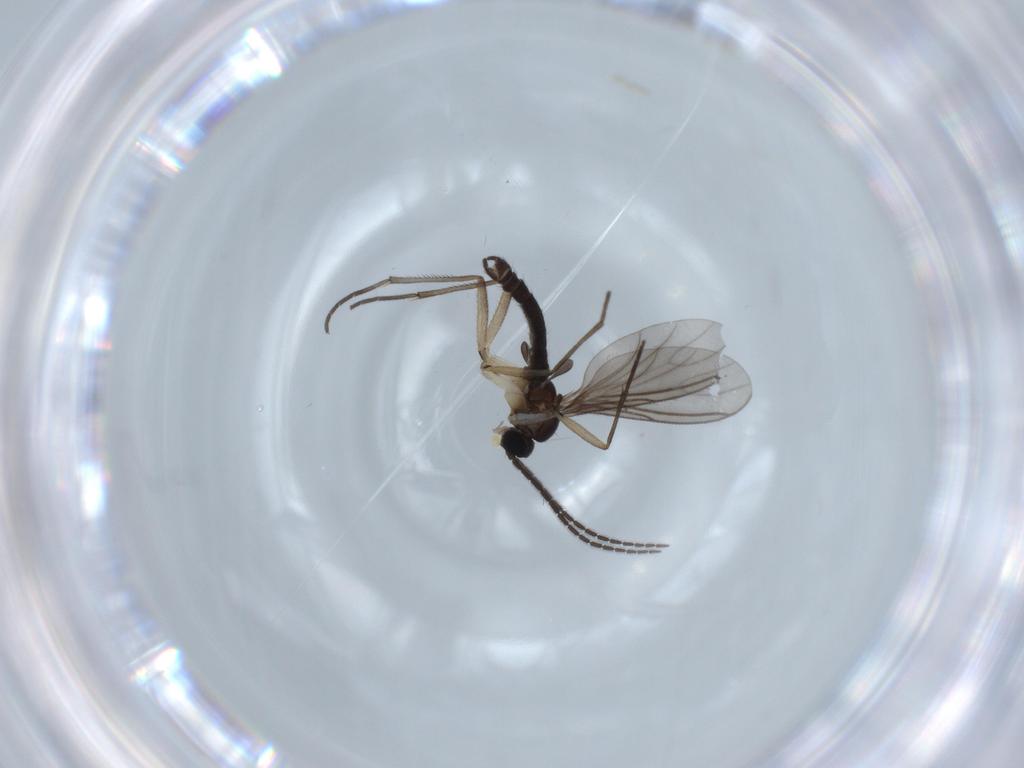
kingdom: Animalia
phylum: Arthropoda
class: Insecta
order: Diptera
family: Sciaridae
